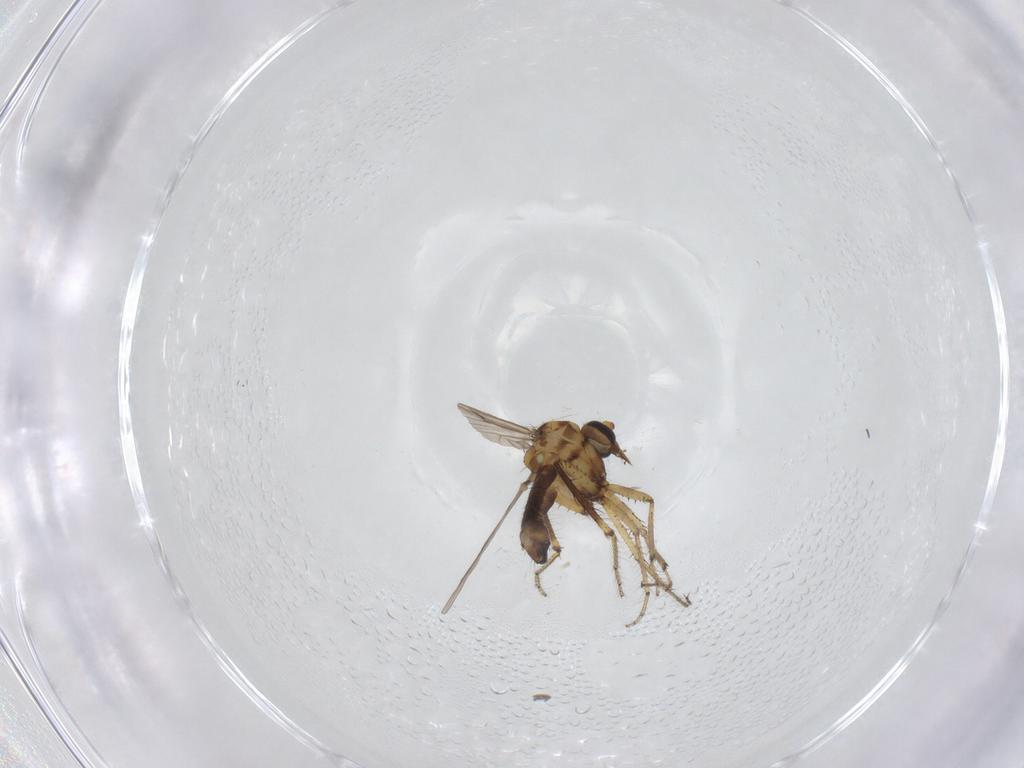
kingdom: Animalia
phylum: Arthropoda
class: Insecta
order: Diptera
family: Ceratopogonidae
